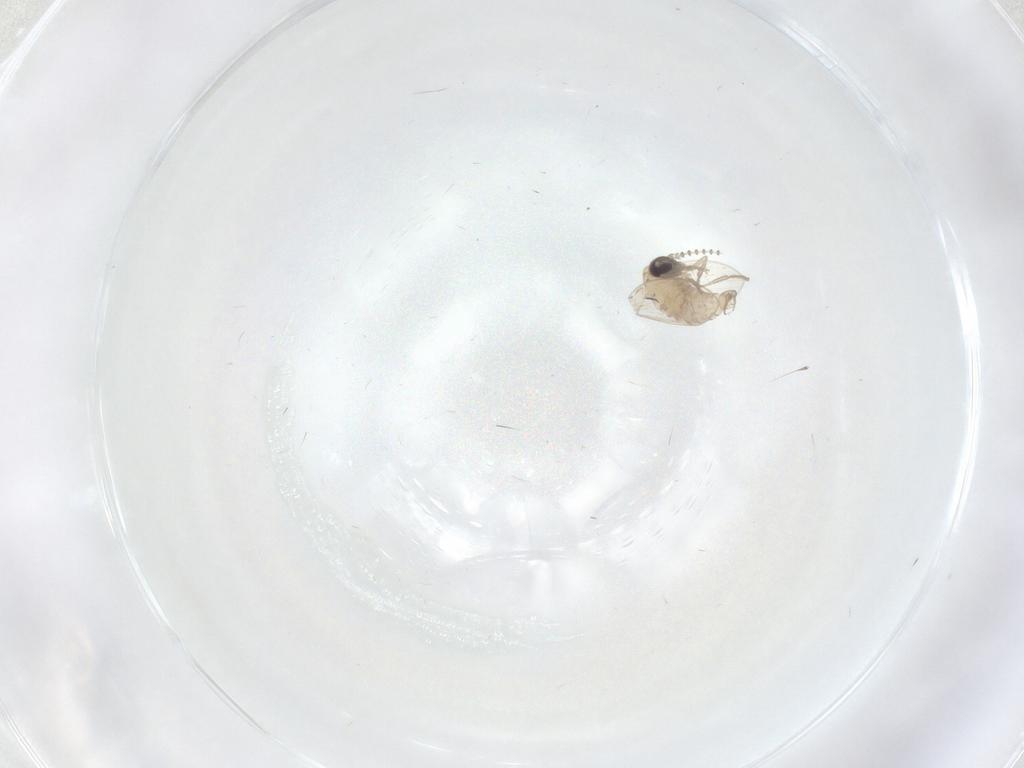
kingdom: Animalia
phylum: Arthropoda
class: Insecta
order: Diptera
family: Psychodidae
